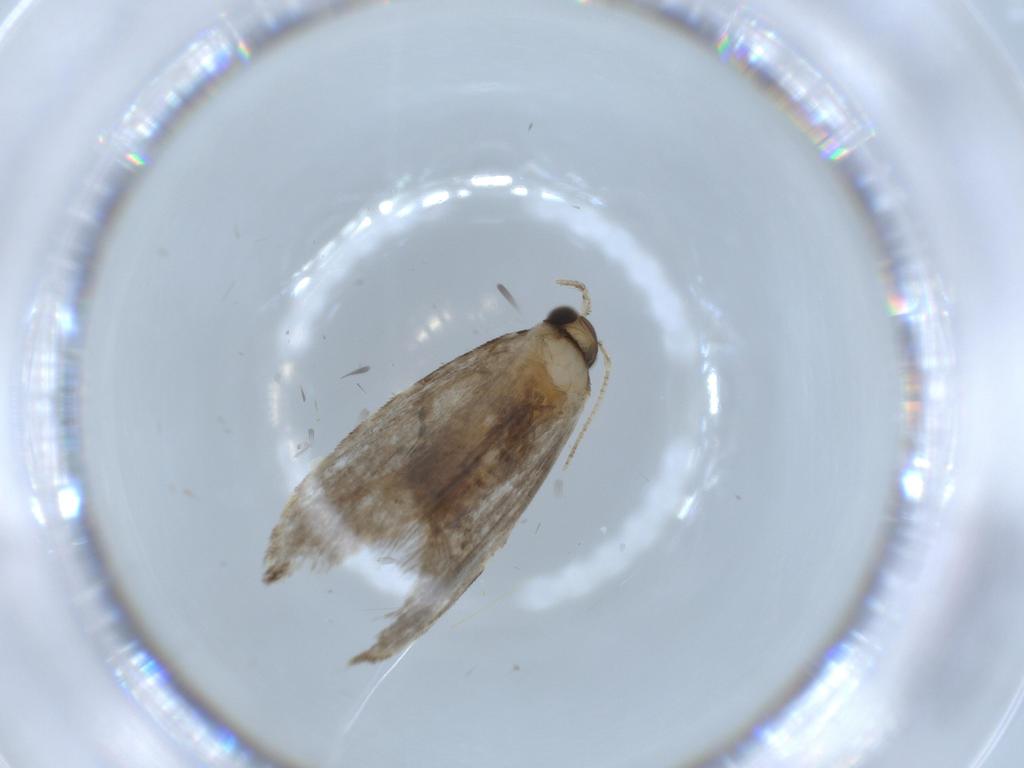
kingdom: Animalia
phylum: Arthropoda
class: Insecta
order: Lepidoptera
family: Tineidae
